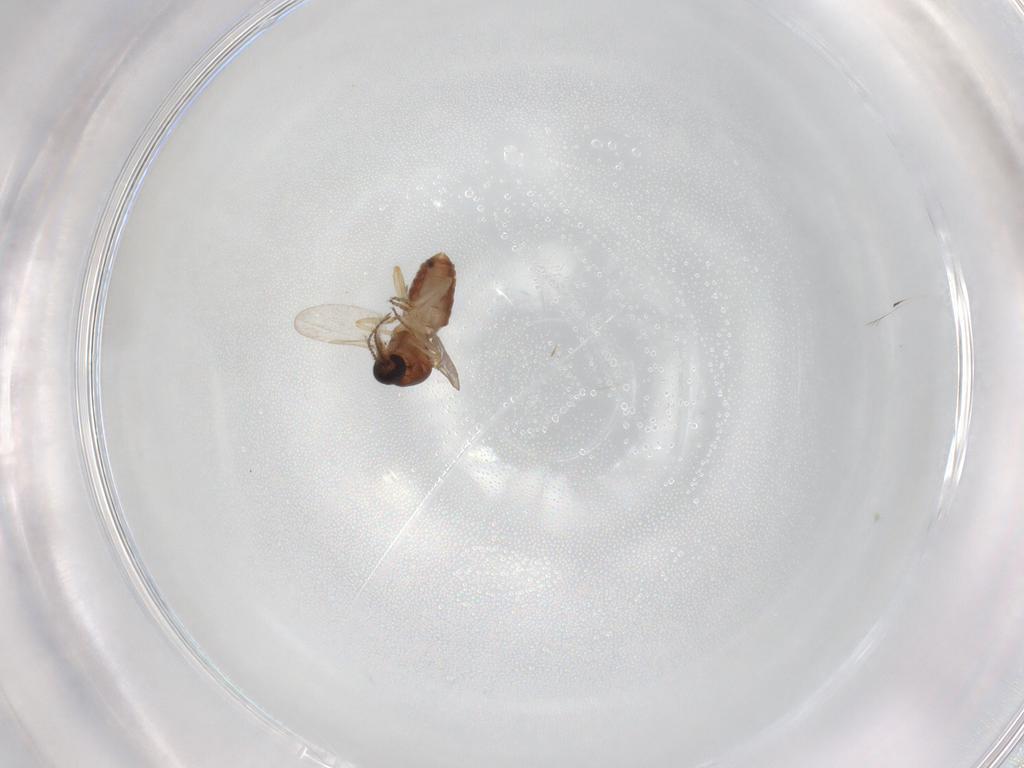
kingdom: Animalia
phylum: Arthropoda
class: Insecta
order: Diptera
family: Ceratopogonidae
